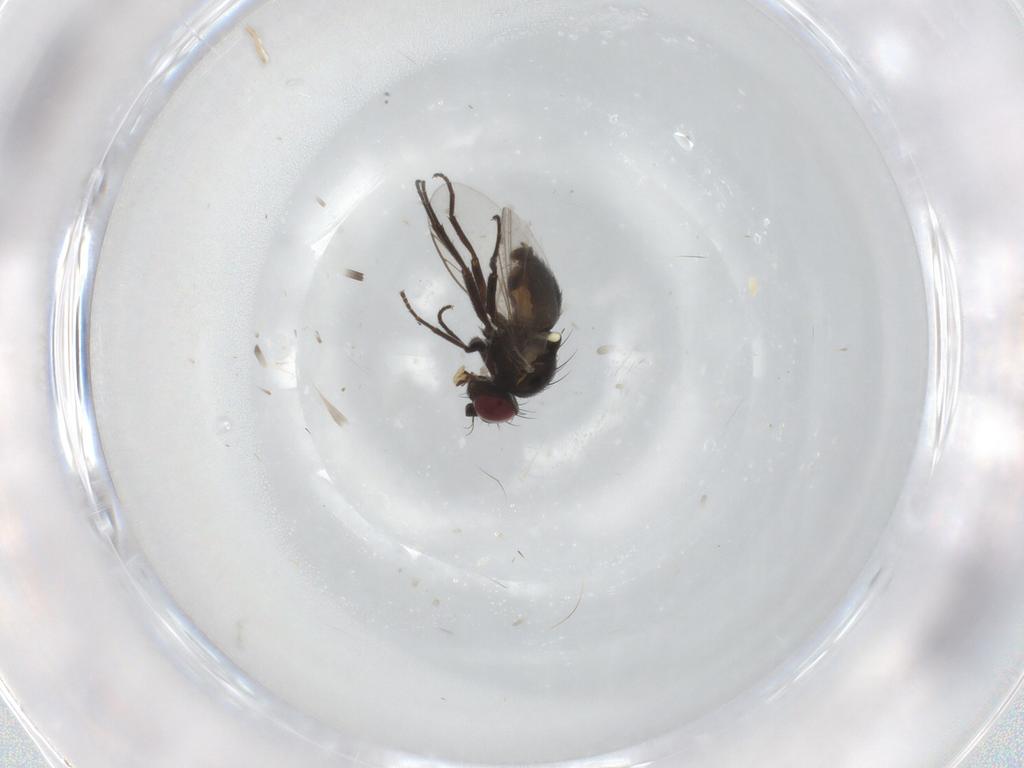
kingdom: Animalia
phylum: Arthropoda
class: Insecta
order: Diptera
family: Agromyzidae
